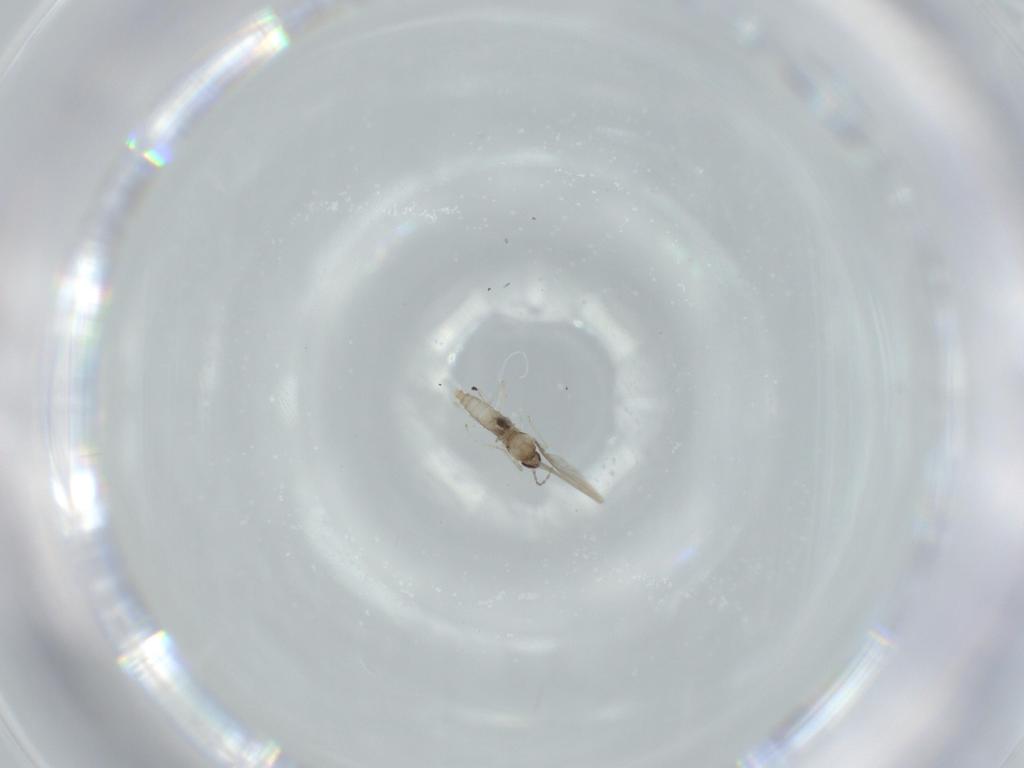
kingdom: Animalia
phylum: Arthropoda
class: Insecta
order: Diptera
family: Cecidomyiidae
